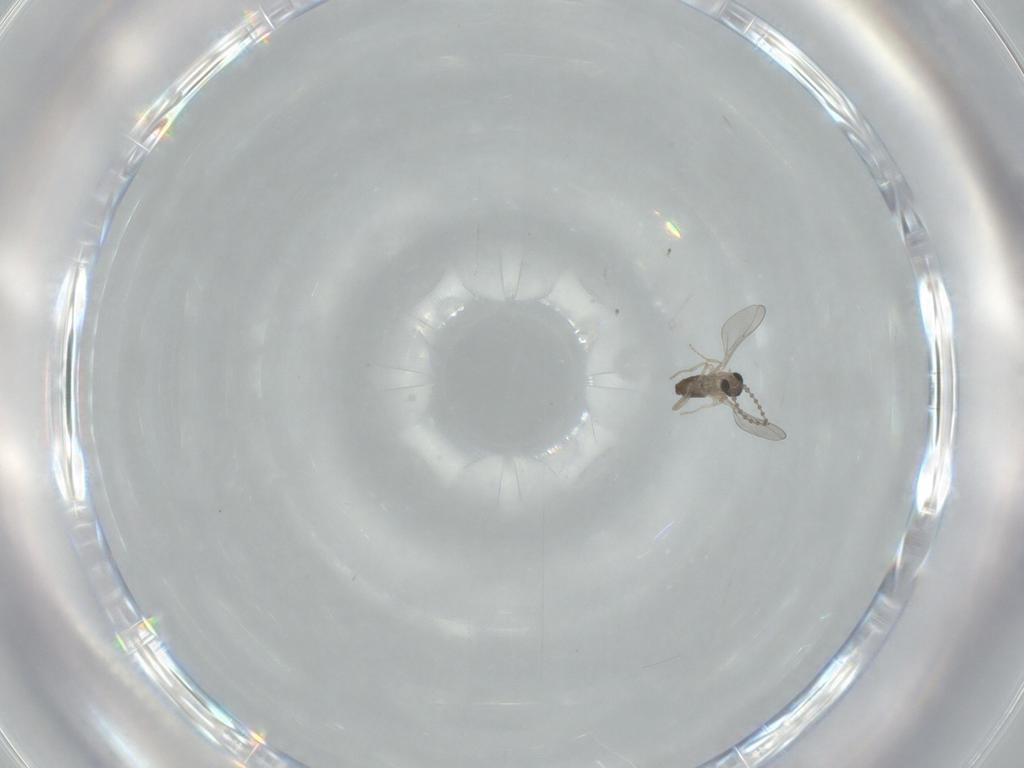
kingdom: Animalia
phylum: Arthropoda
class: Insecta
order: Diptera
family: Cecidomyiidae
